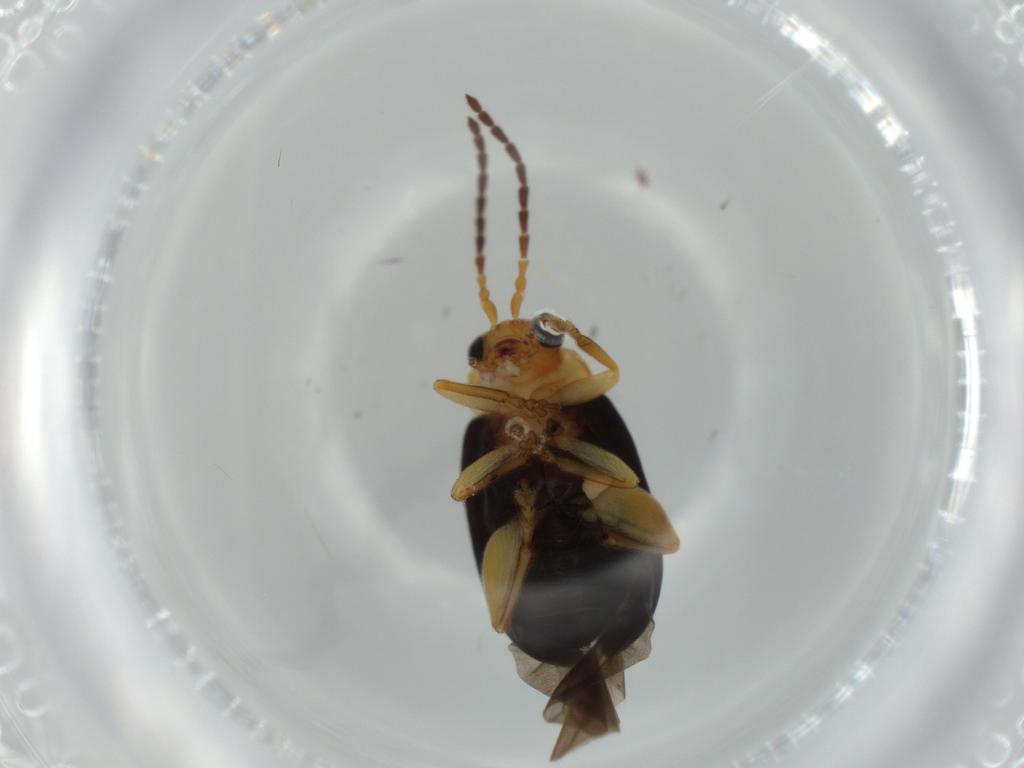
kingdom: Animalia
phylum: Arthropoda
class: Insecta
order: Coleoptera
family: Chrysomelidae
